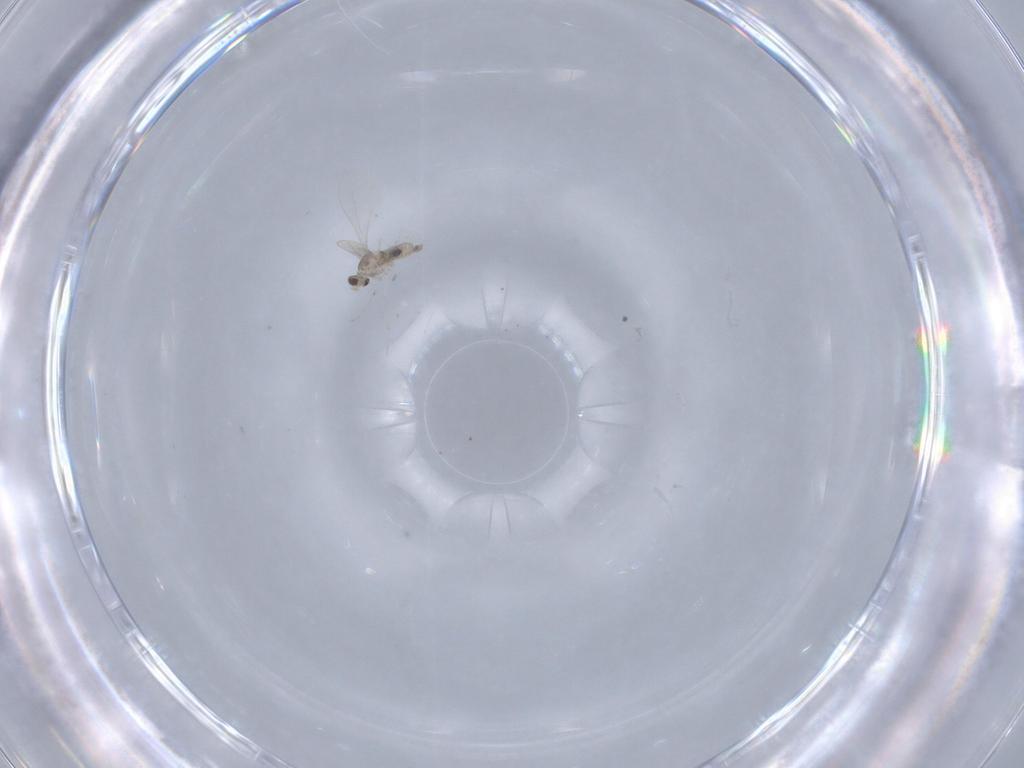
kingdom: Animalia
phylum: Arthropoda
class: Insecta
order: Diptera
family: Cecidomyiidae
